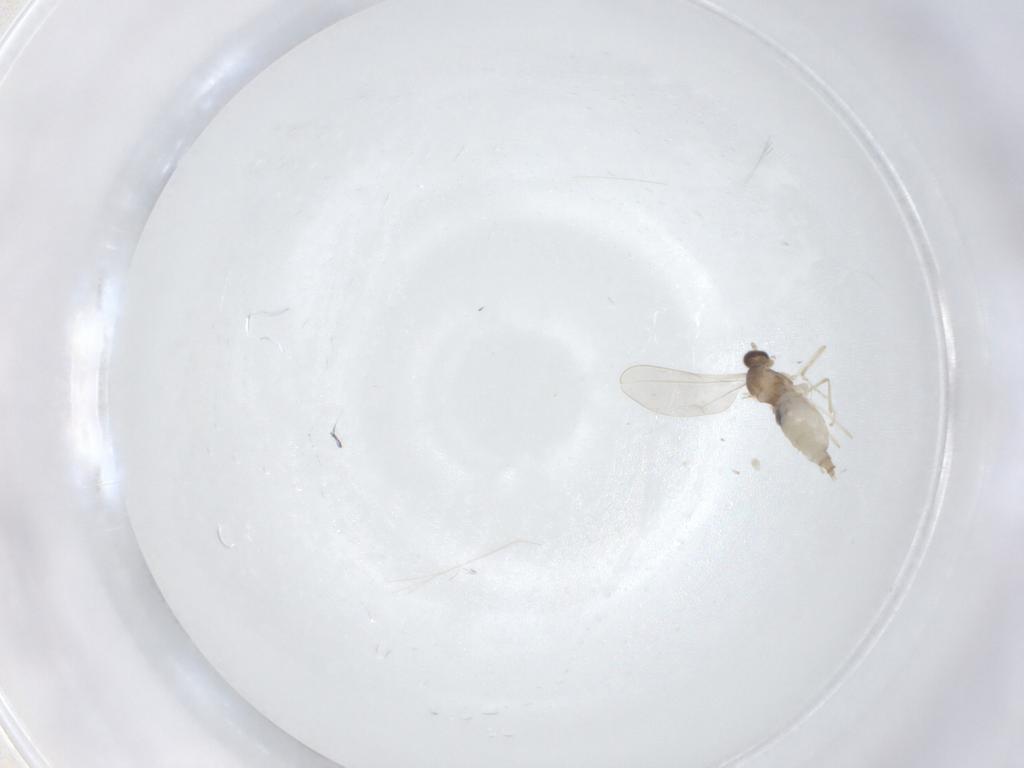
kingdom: Animalia
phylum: Arthropoda
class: Insecta
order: Diptera
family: Cecidomyiidae
